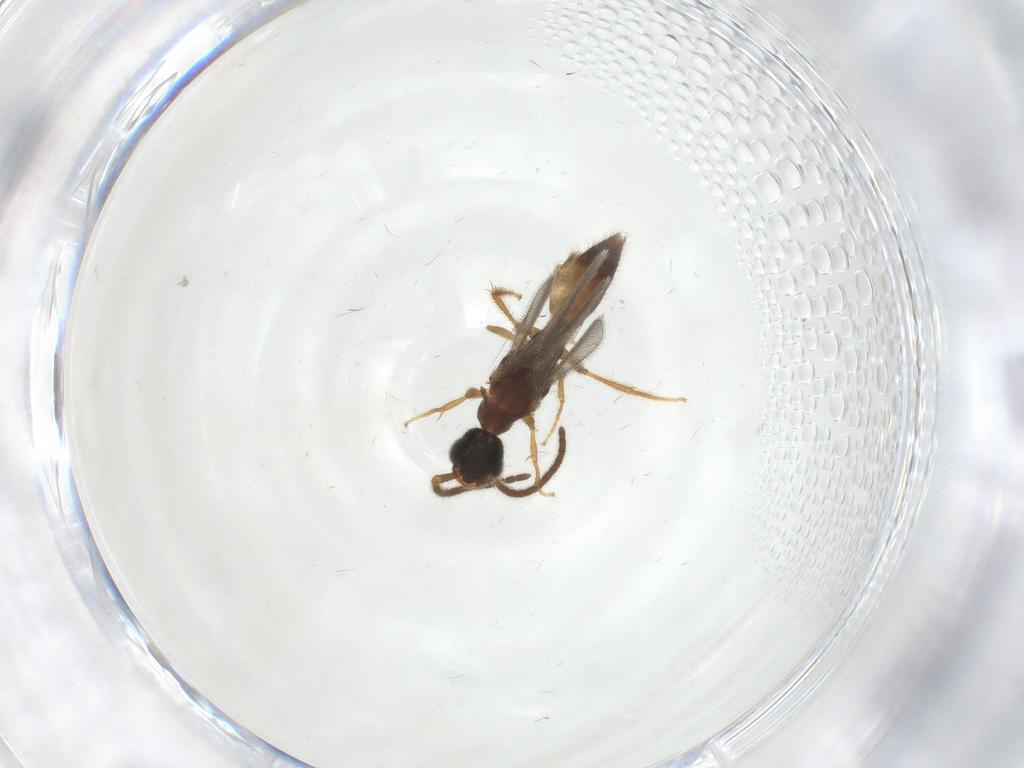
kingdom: Animalia
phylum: Arthropoda
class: Insecta
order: Hymenoptera
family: Bethylidae
